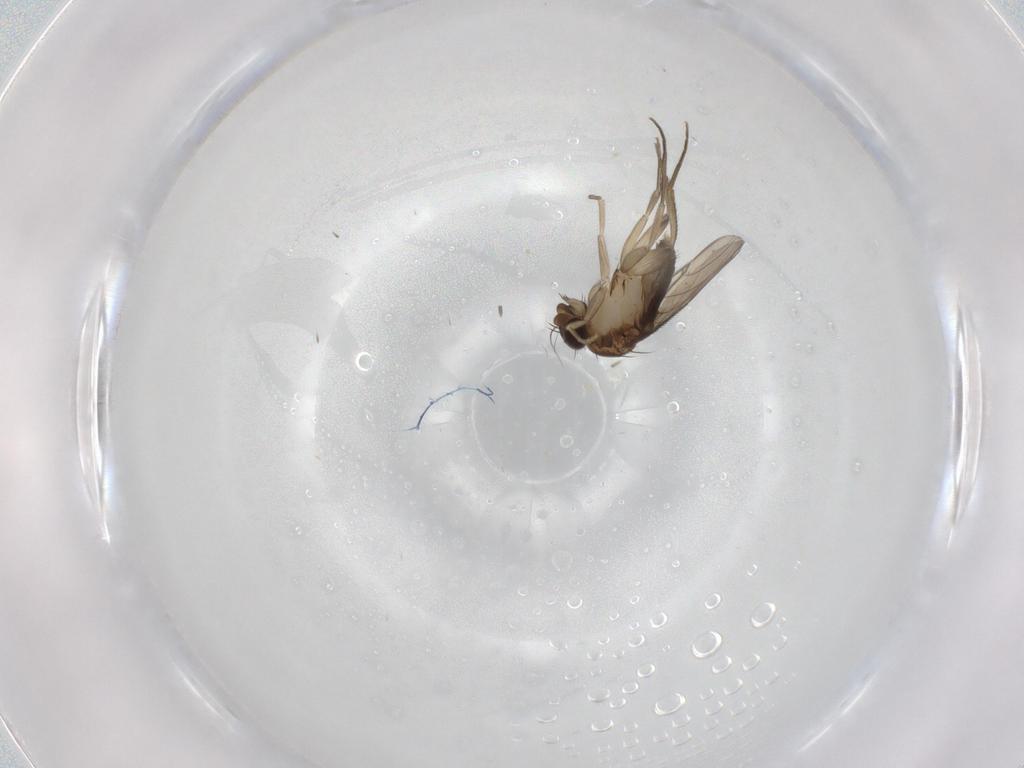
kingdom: Animalia
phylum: Arthropoda
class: Insecta
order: Diptera
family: Phoridae
